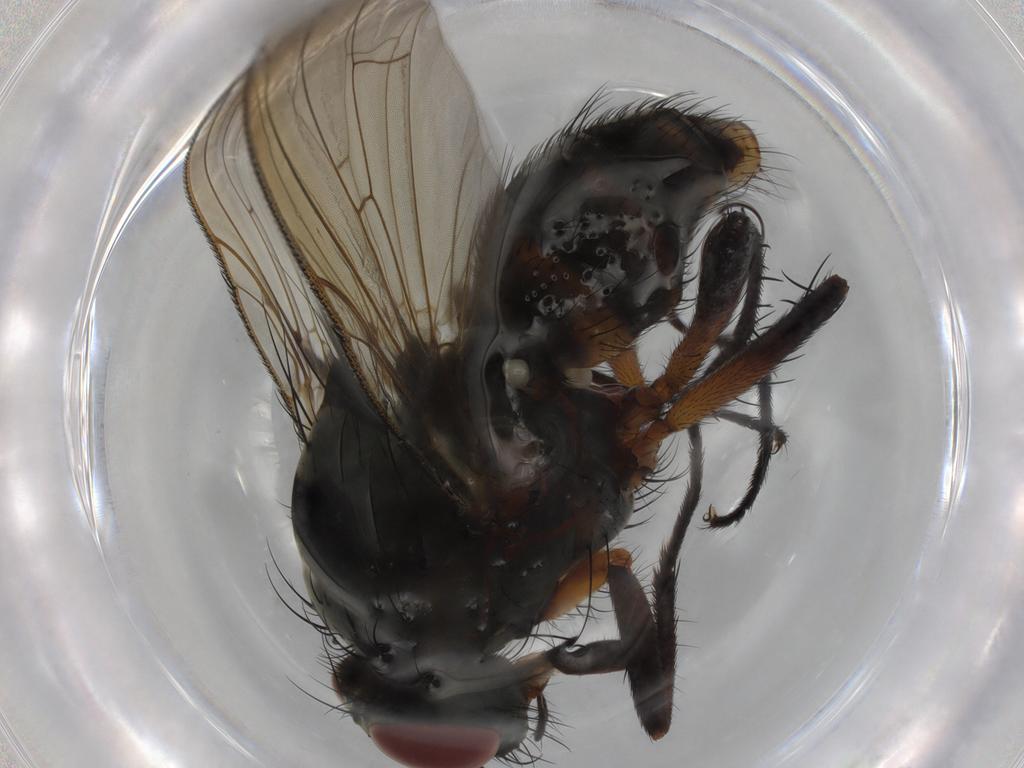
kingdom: Animalia
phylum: Arthropoda
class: Insecta
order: Diptera
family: Anthomyiidae
